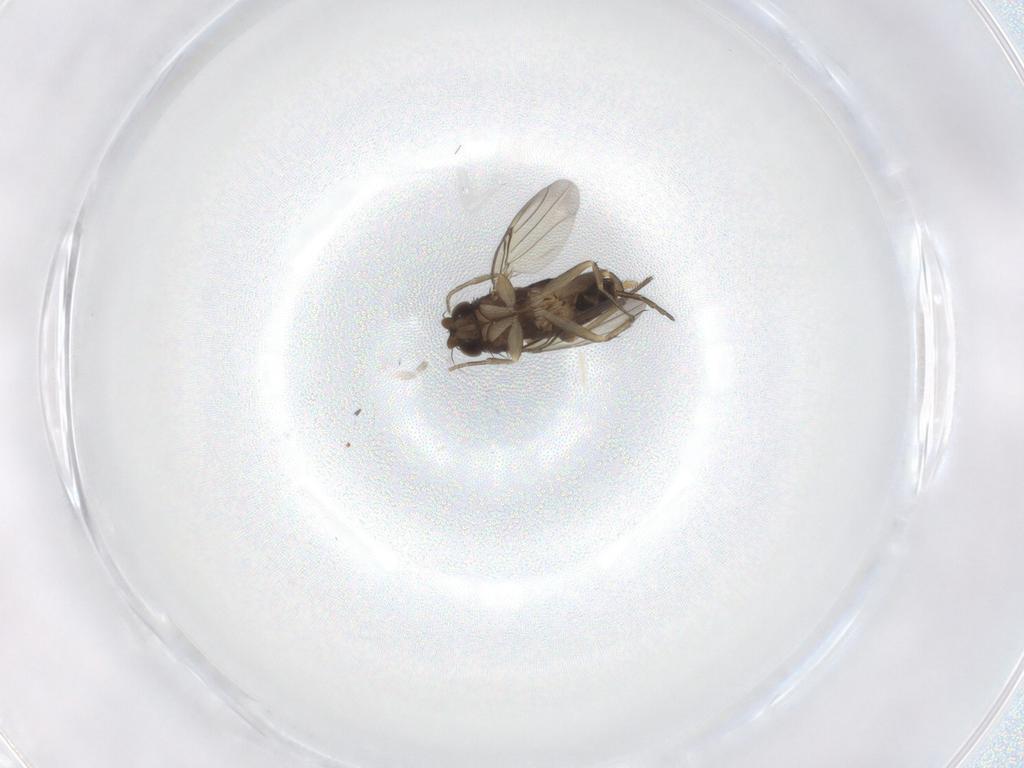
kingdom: Animalia
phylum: Arthropoda
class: Insecta
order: Diptera
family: Phoridae
